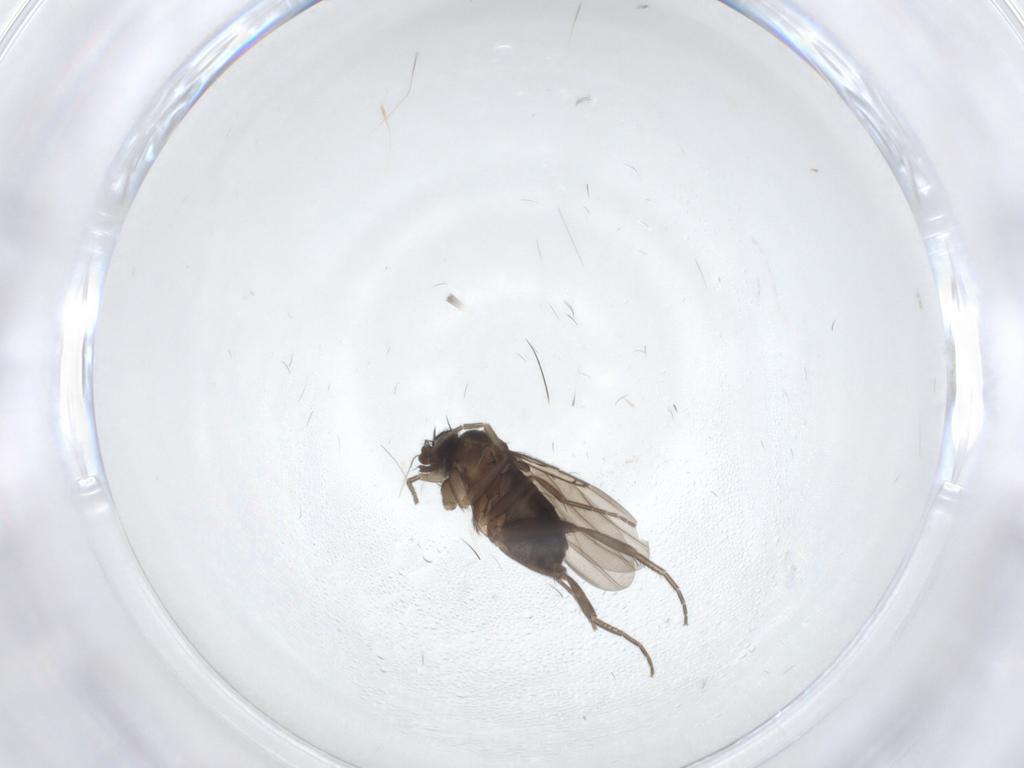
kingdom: Animalia
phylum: Arthropoda
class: Insecta
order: Diptera
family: Phoridae
